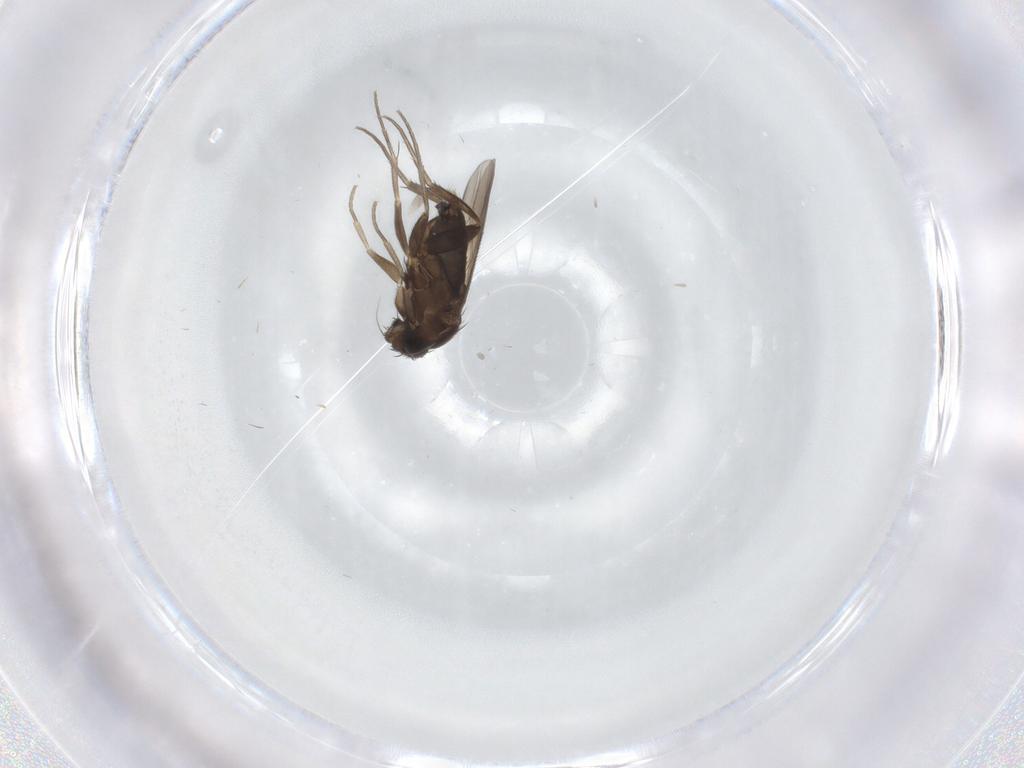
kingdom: Animalia
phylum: Arthropoda
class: Insecta
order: Diptera
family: Phoridae
